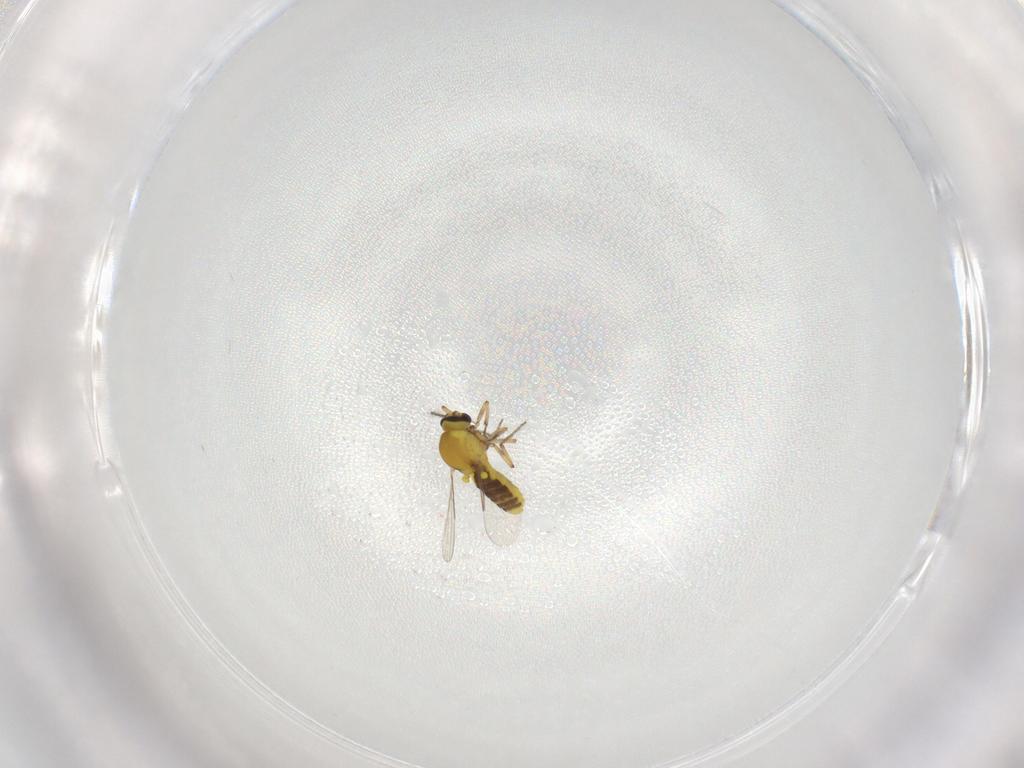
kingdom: Animalia
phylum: Arthropoda
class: Insecta
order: Diptera
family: Cecidomyiidae
